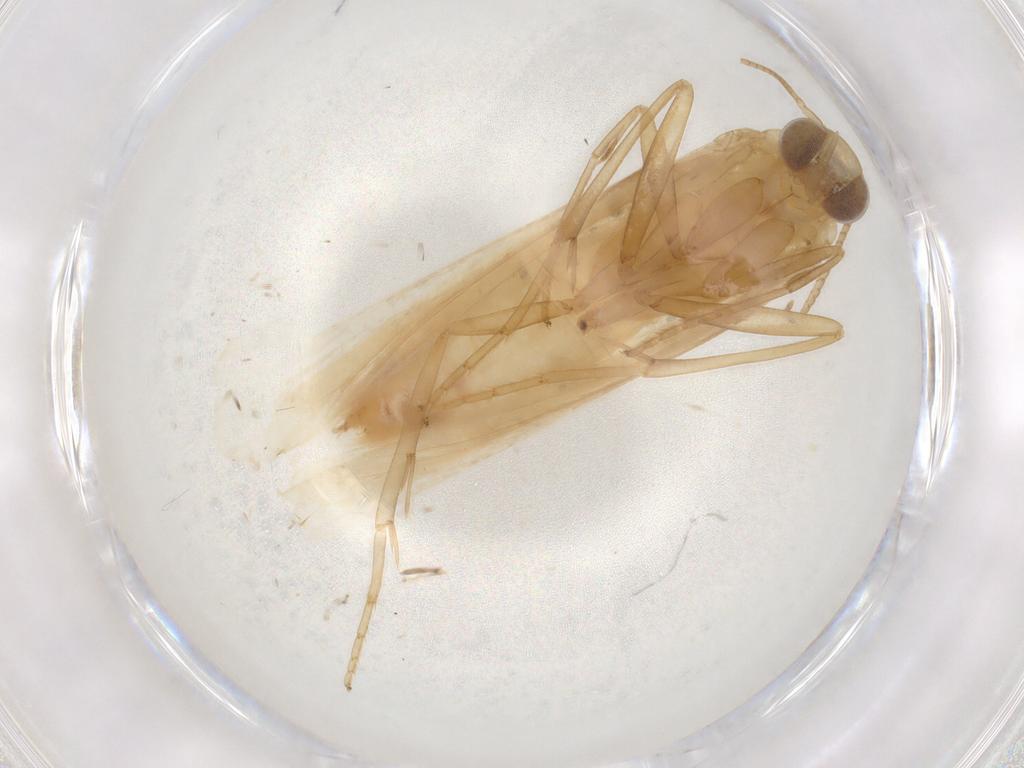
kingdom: Animalia
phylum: Arthropoda
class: Insecta
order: Lepidoptera
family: Pyralidae
